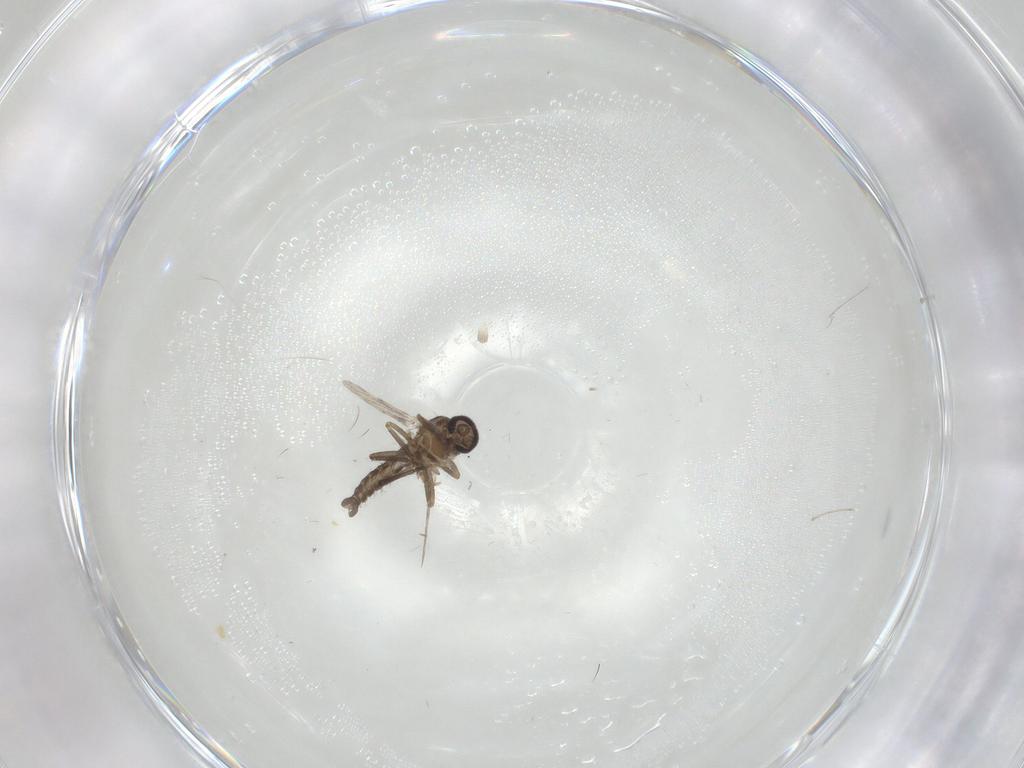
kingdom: Animalia
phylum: Arthropoda
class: Insecta
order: Diptera
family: Ceratopogonidae
